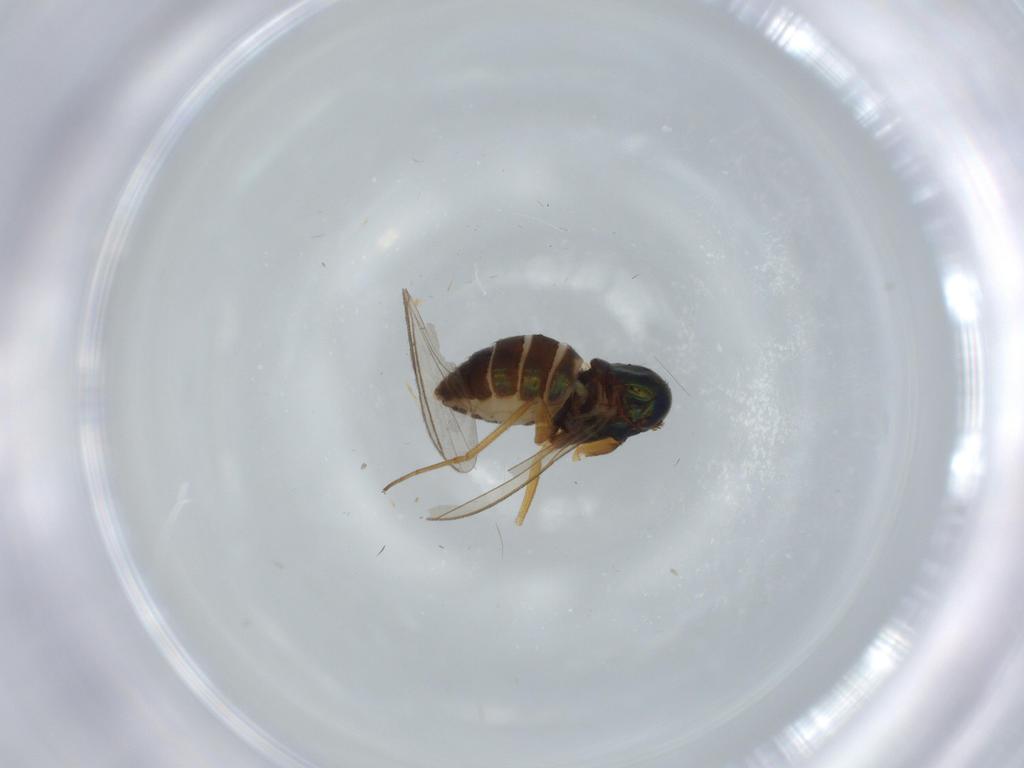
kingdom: Animalia
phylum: Arthropoda
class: Insecta
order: Diptera
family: Dolichopodidae
